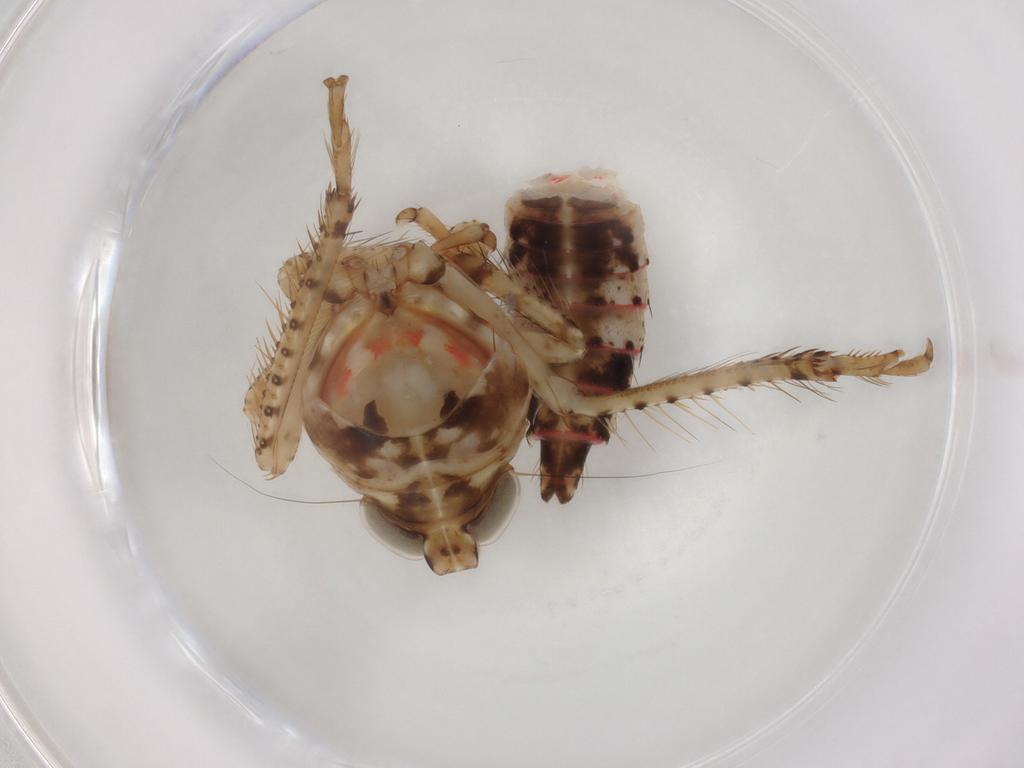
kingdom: Animalia
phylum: Arthropoda
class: Insecta
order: Hemiptera
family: Cicadellidae
